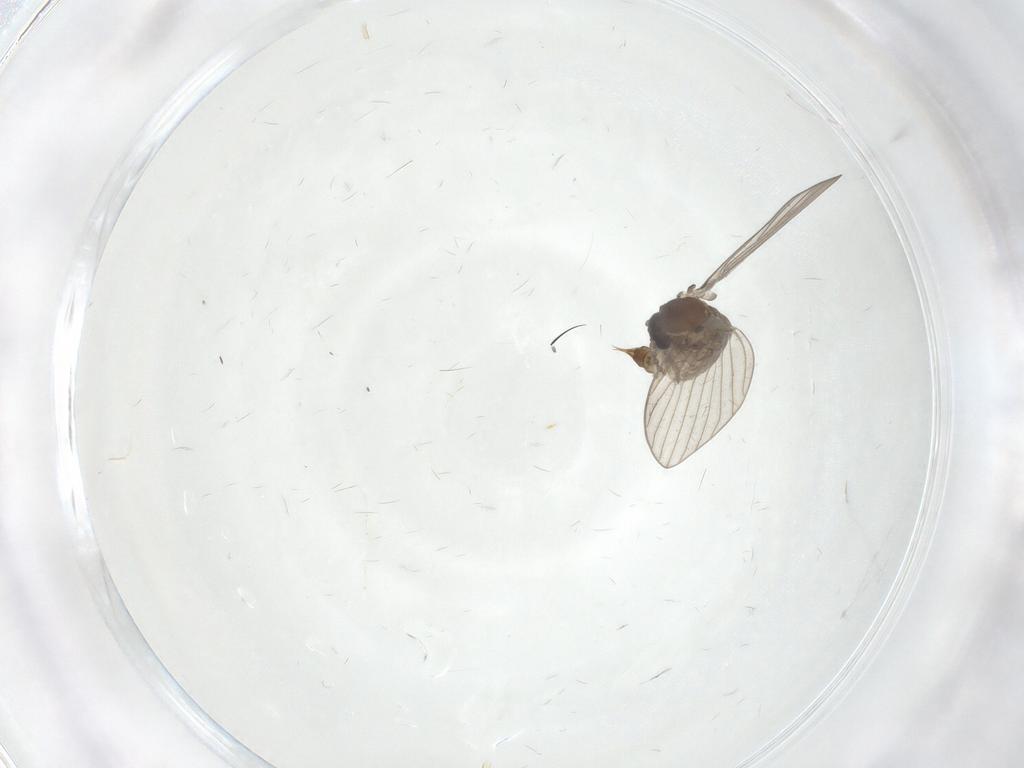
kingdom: Animalia
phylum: Arthropoda
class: Insecta
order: Diptera
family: Psychodidae
